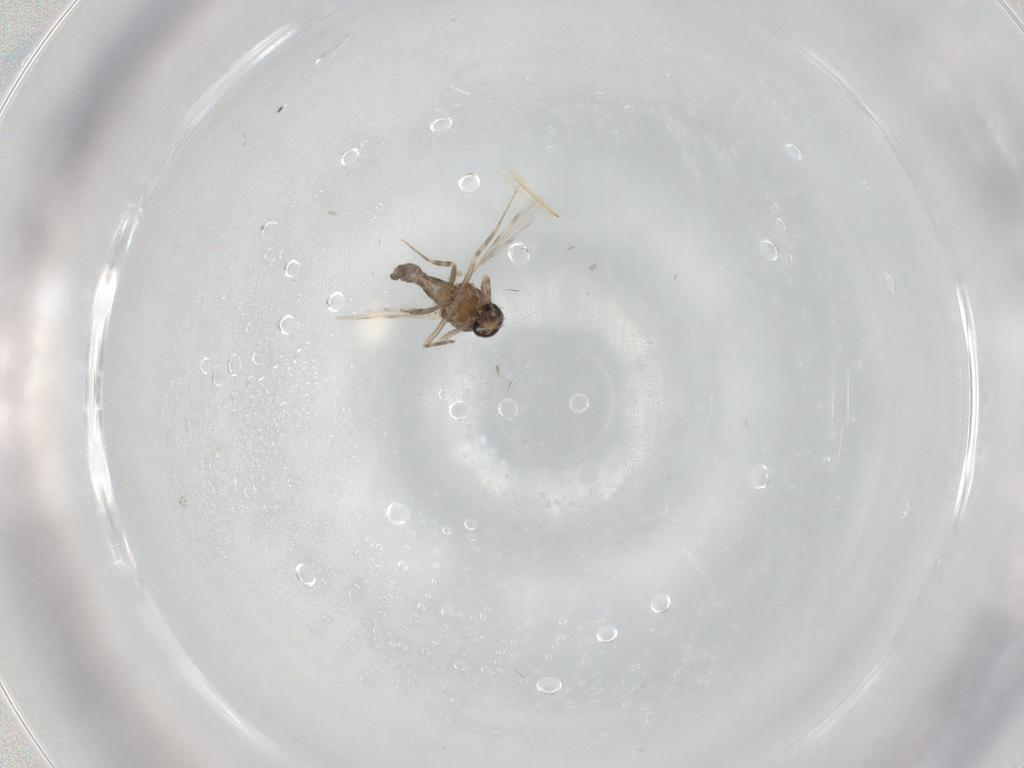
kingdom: Animalia
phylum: Arthropoda
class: Insecta
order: Diptera
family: Ceratopogonidae
